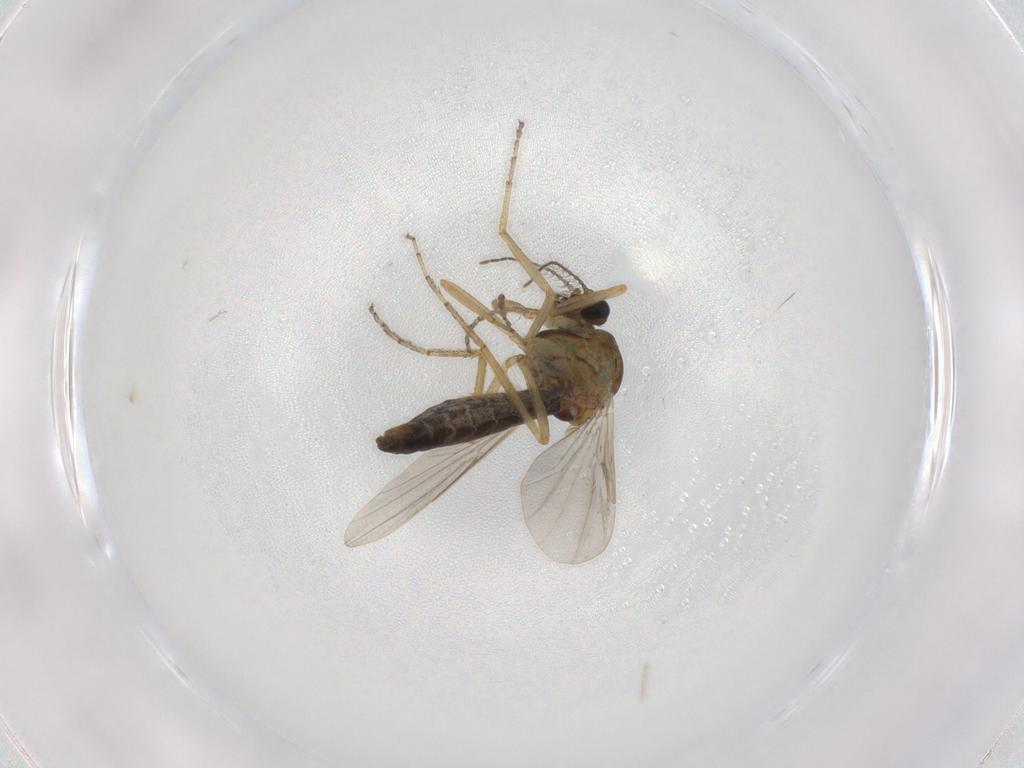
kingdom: Animalia
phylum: Arthropoda
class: Insecta
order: Diptera
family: Ceratopogonidae
